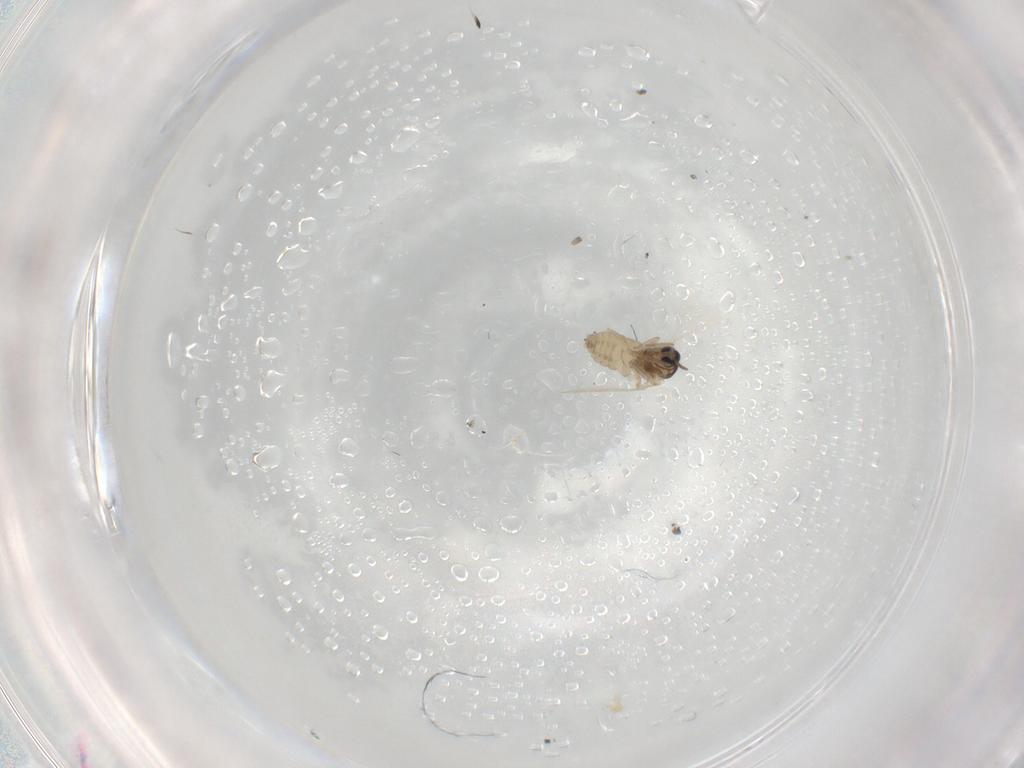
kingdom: Animalia
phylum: Arthropoda
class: Insecta
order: Diptera
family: Cecidomyiidae
